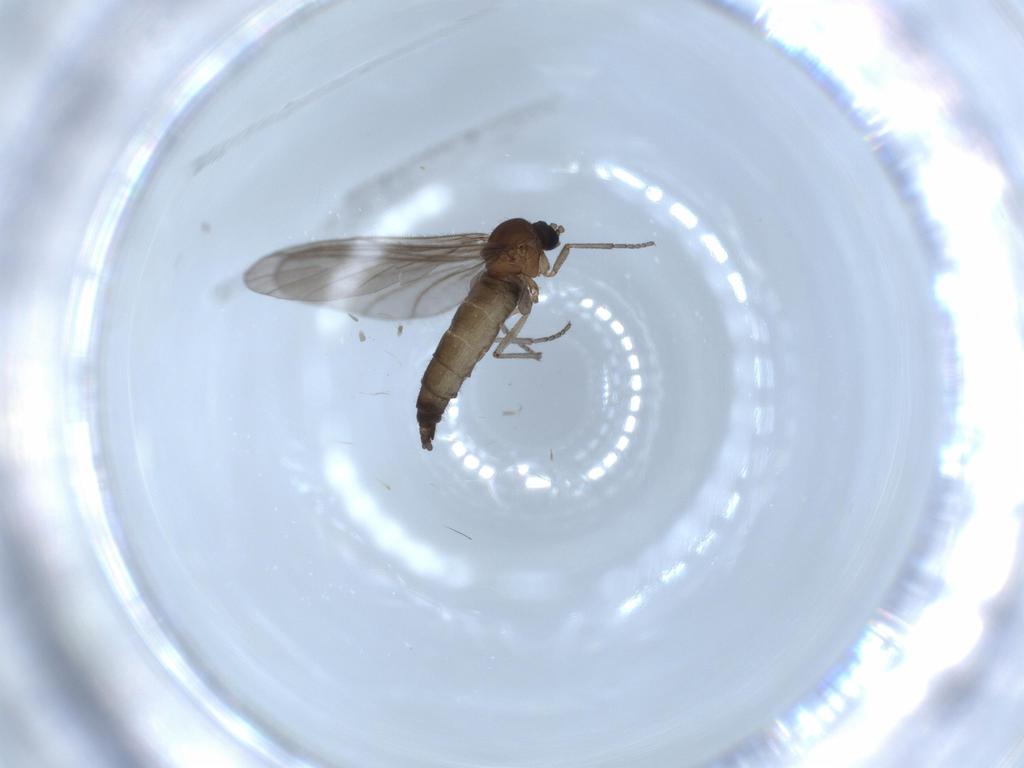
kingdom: Animalia
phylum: Arthropoda
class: Insecta
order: Diptera
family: Sciaridae
